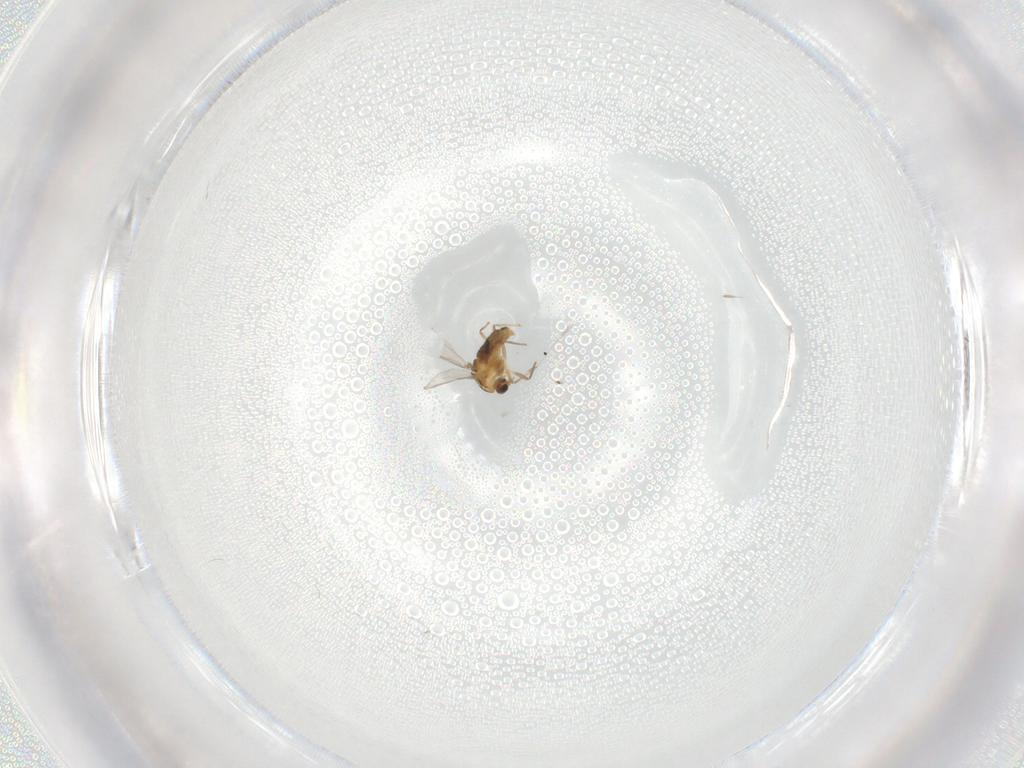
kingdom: Animalia
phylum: Arthropoda
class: Insecta
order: Diptera
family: Chironomidae
